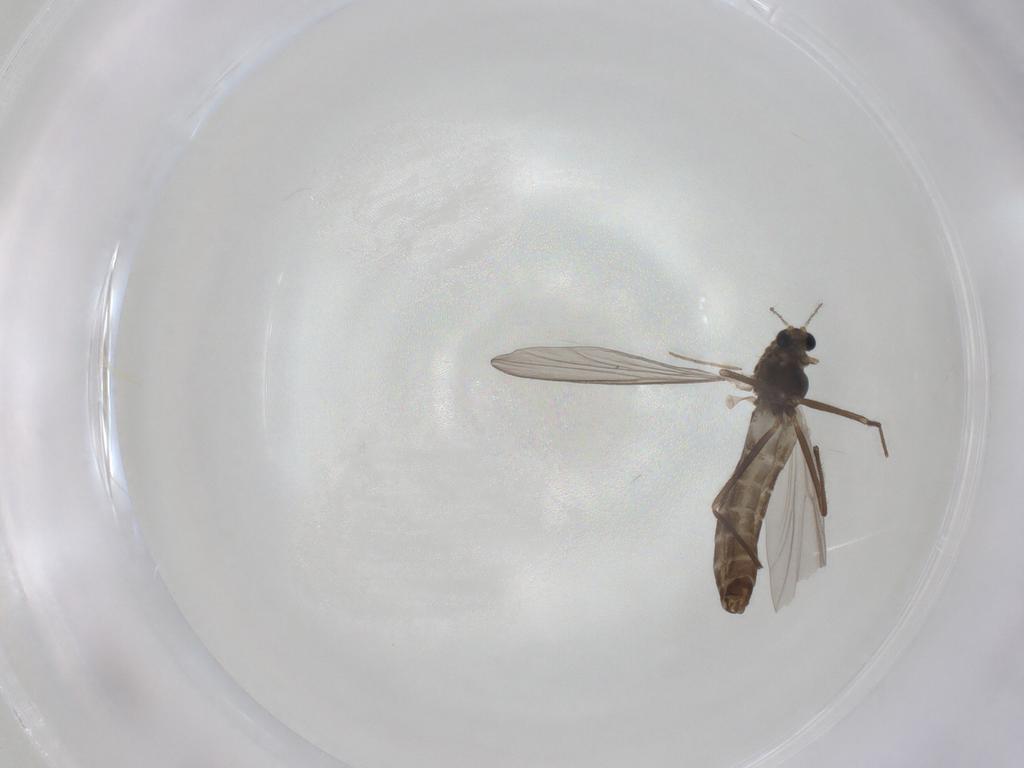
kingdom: Animalia
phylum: Arthropoda
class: Insecta
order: Diptera
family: Chironomidae
